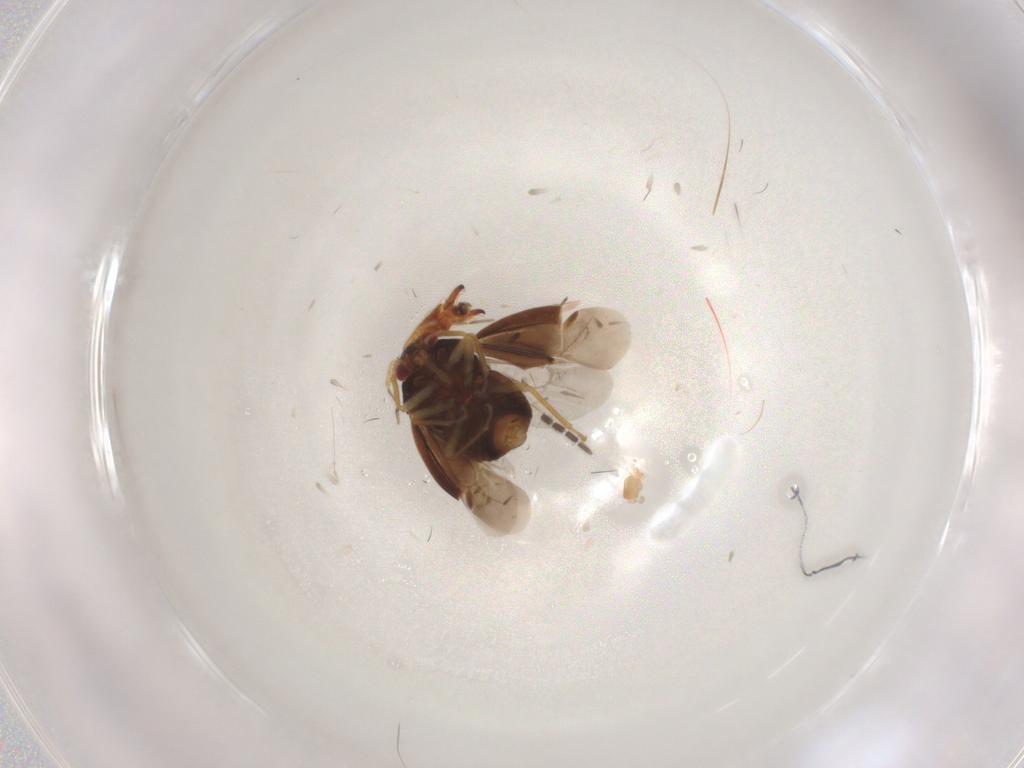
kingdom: Animalia
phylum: Arthropoda
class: Insecta
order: Hemiptera
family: Miridae
